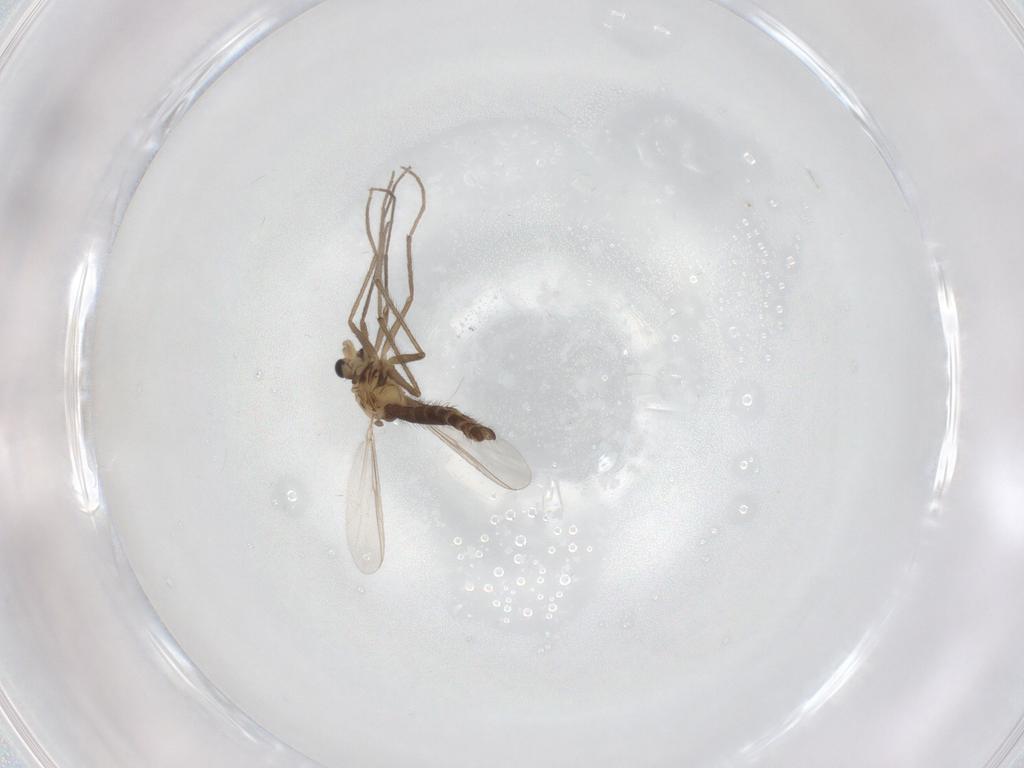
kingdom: Animalia
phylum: Arthropoda
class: Insecta
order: Diptera
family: Chironomidae
